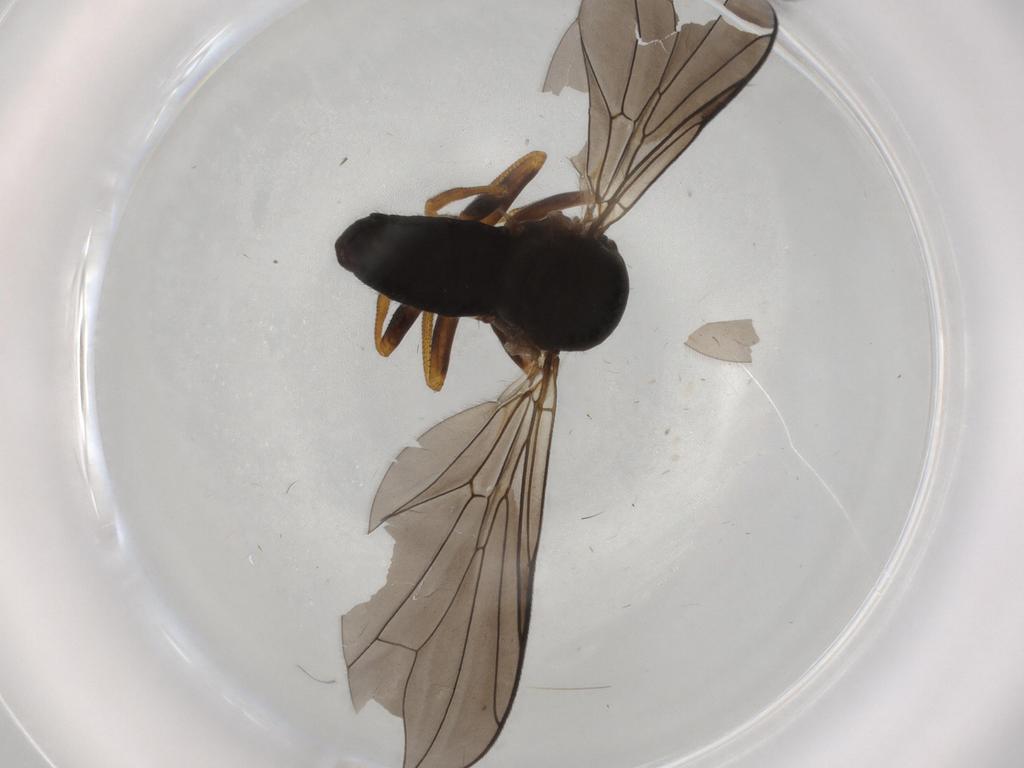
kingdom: Animalia
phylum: Arthropoda
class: Insecta
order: Diptera
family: Pipunculidae
